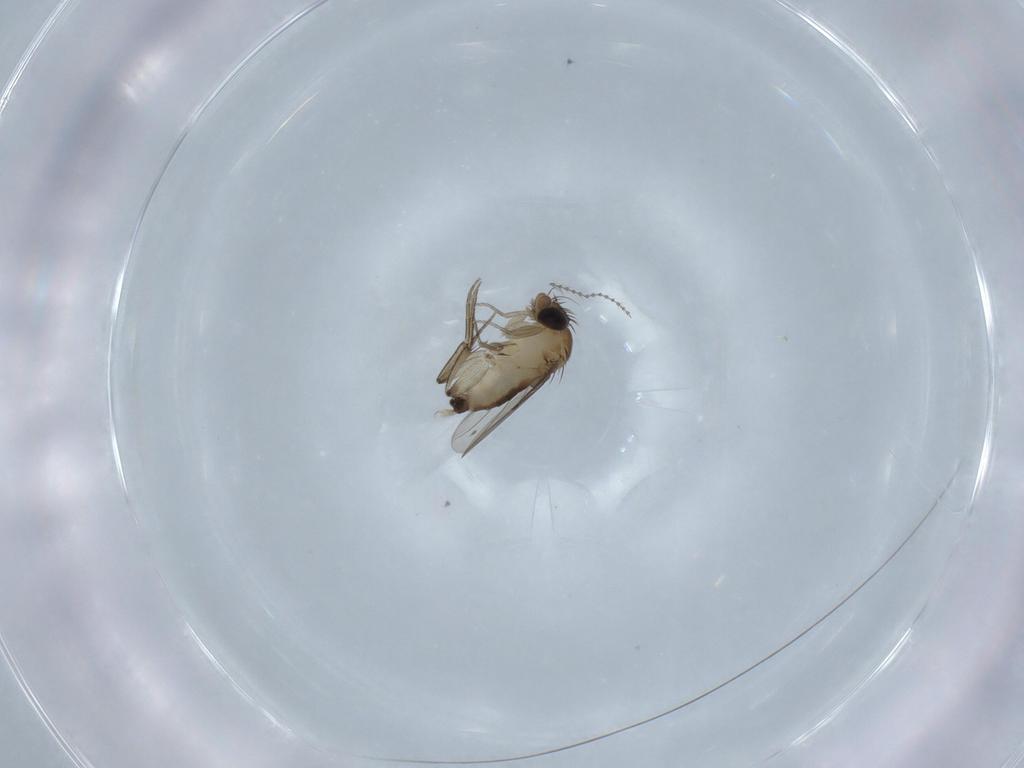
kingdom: Animalia
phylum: Arthropoda
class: Insecta
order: Diptera
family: Phoridae
